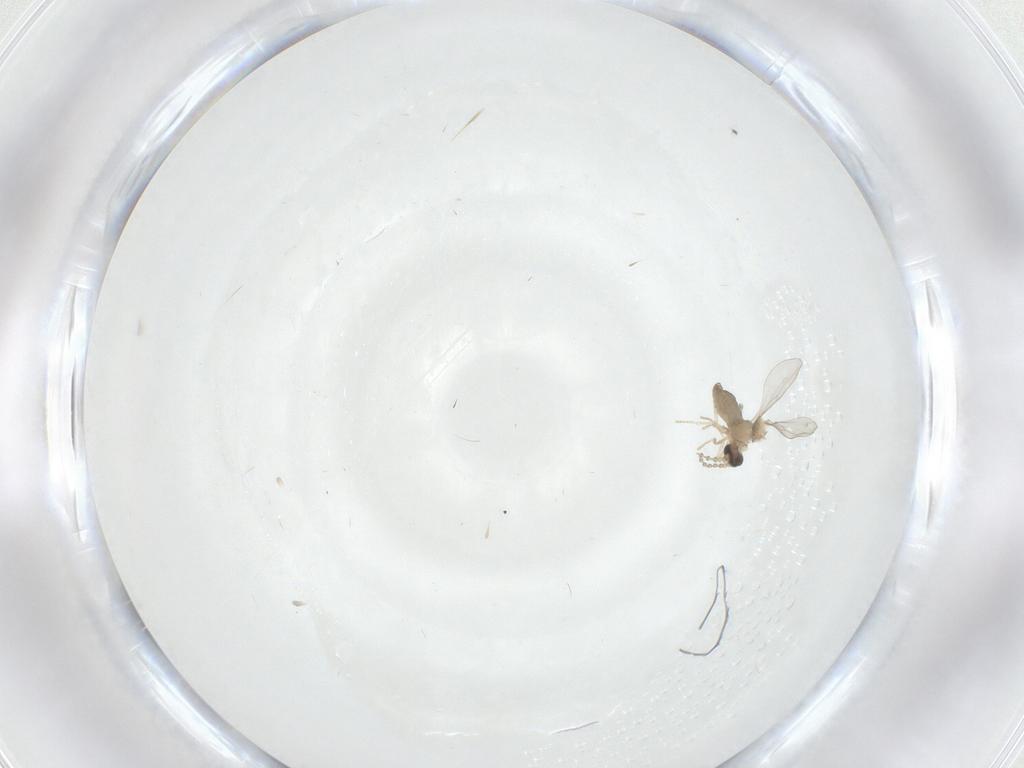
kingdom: Animalia
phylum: Arthropoda
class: Insecta
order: Diptera
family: Cecidomyiidae
